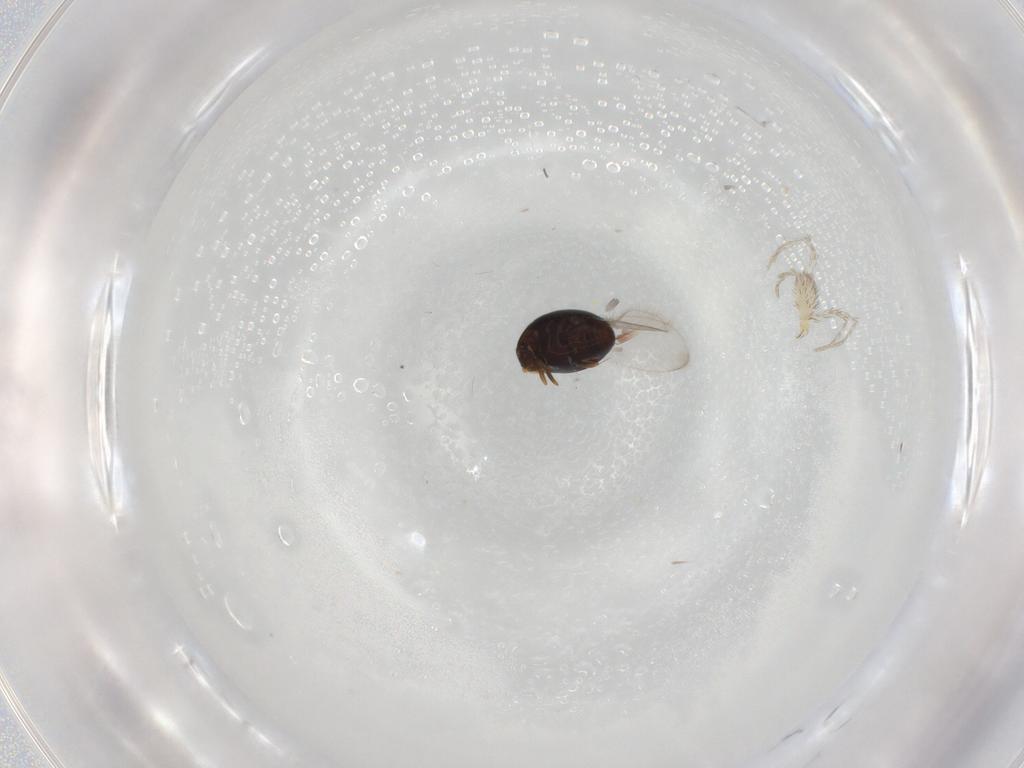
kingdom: Animalia
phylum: Arthropoda
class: Insecta
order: Coleoptera
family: Corylophidae
